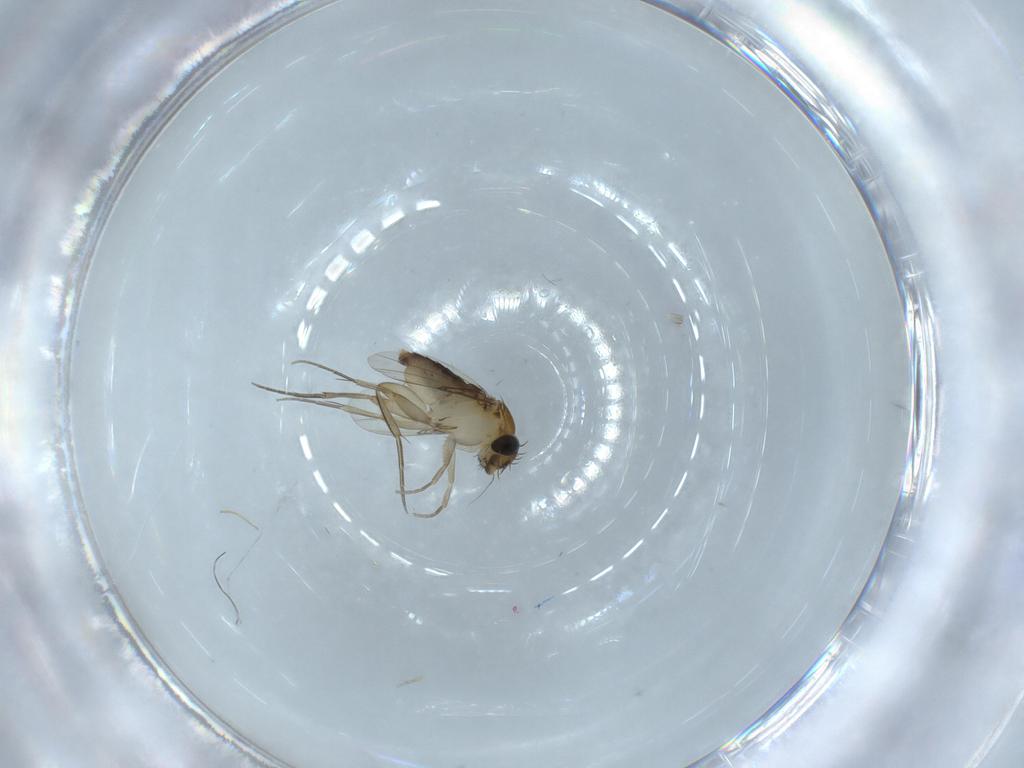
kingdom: Animalia
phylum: Arthropoda
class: Insecta
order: Diptera
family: Phoridae
